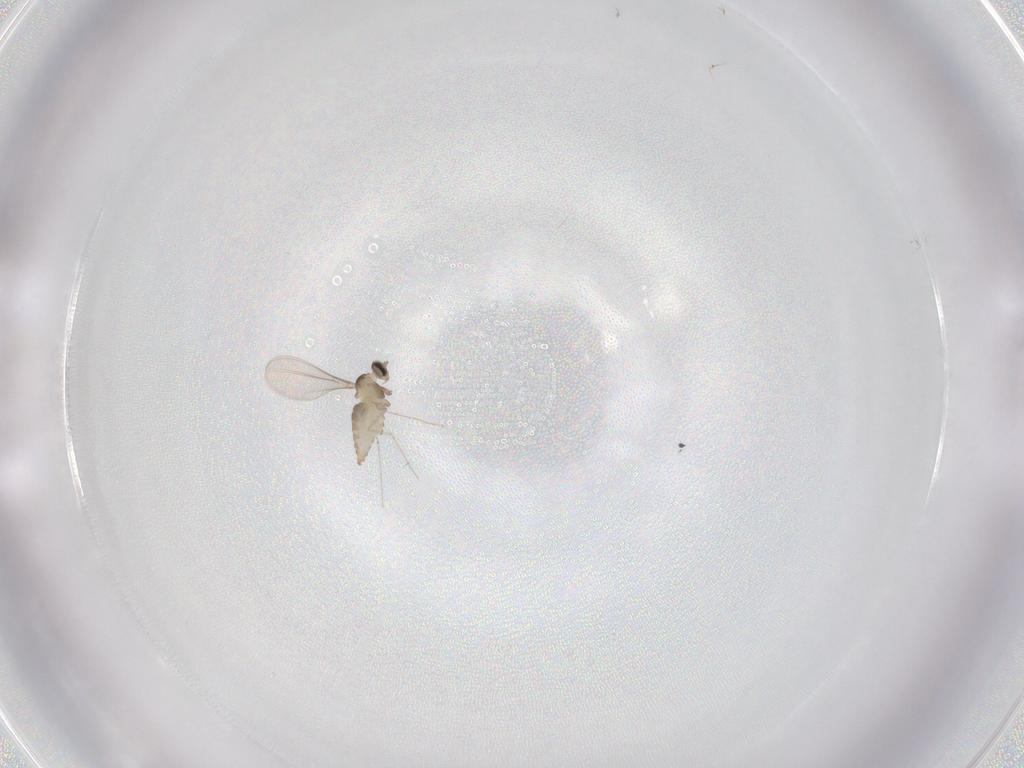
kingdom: Animalia
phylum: Arthropoda
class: Insecta
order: Diptera
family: Cecidomyiidae
